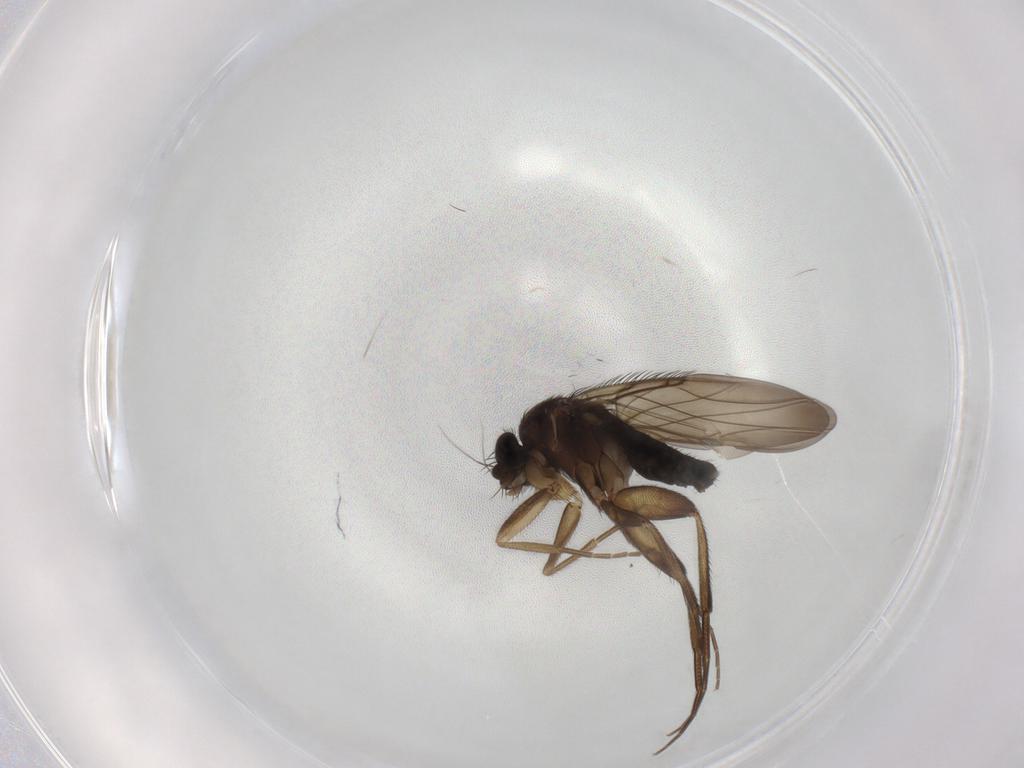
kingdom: Animalia
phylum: Arthropoda
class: Insecta
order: Diptera
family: Phoridae
